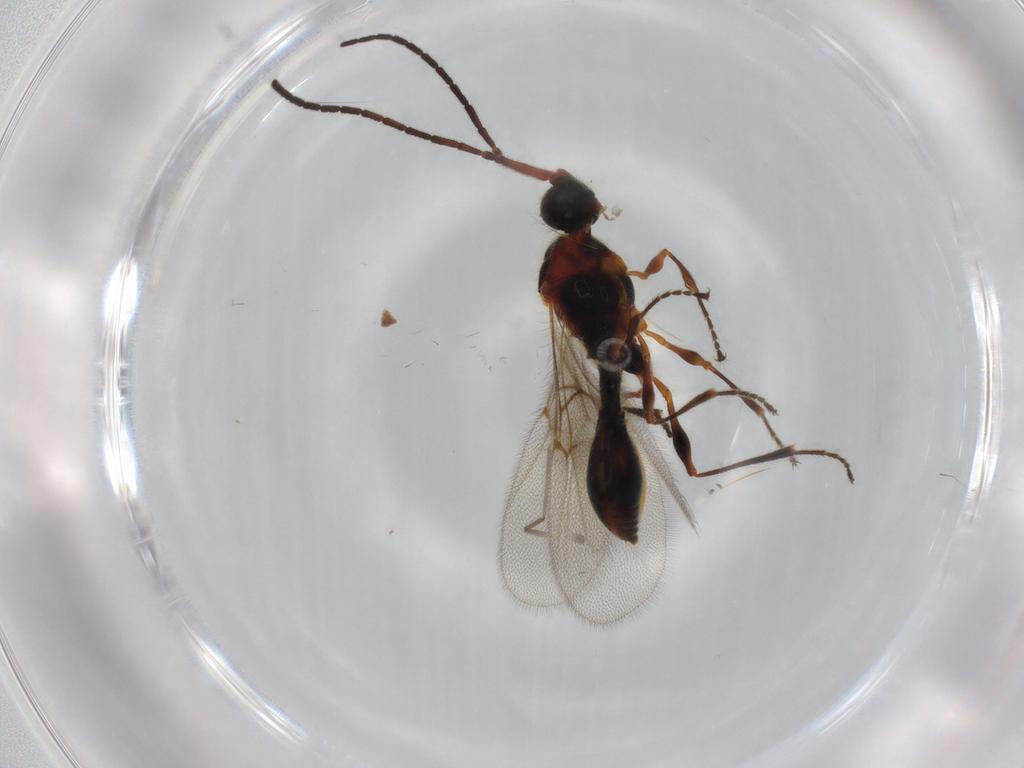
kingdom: Animalia
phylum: Arthropoda
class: Insecta
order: Hymenoptera
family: Diapriidae
